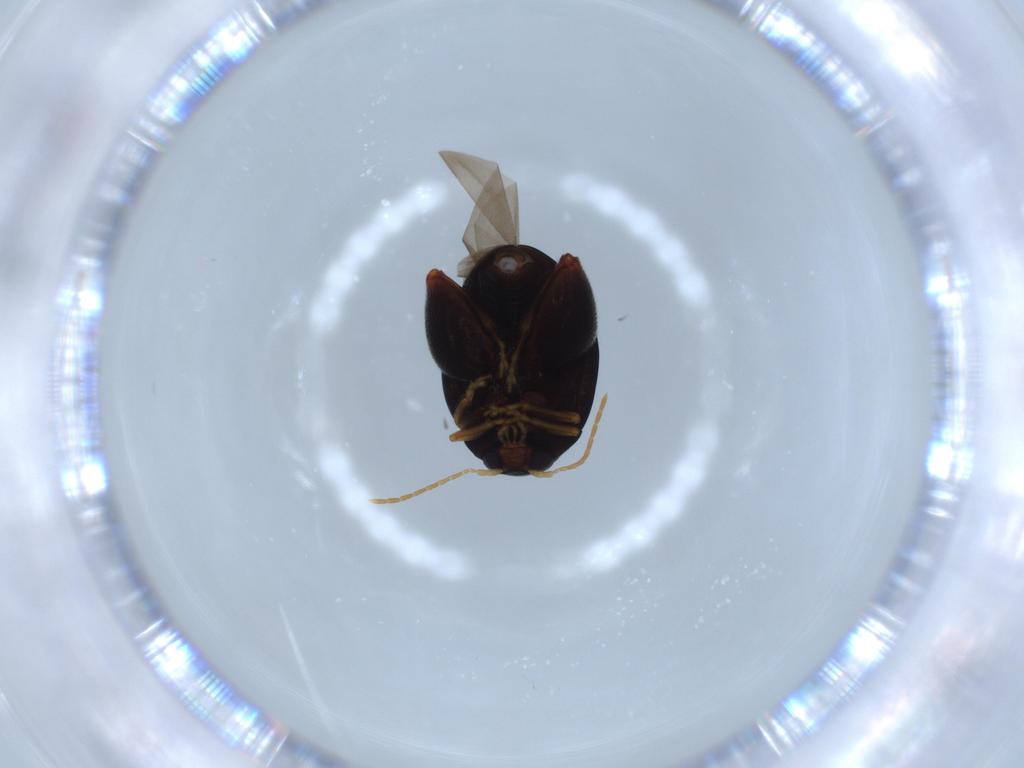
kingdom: Animalia
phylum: Arthropoda
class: Insecta
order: Coleoptera
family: Chrysomelidae
